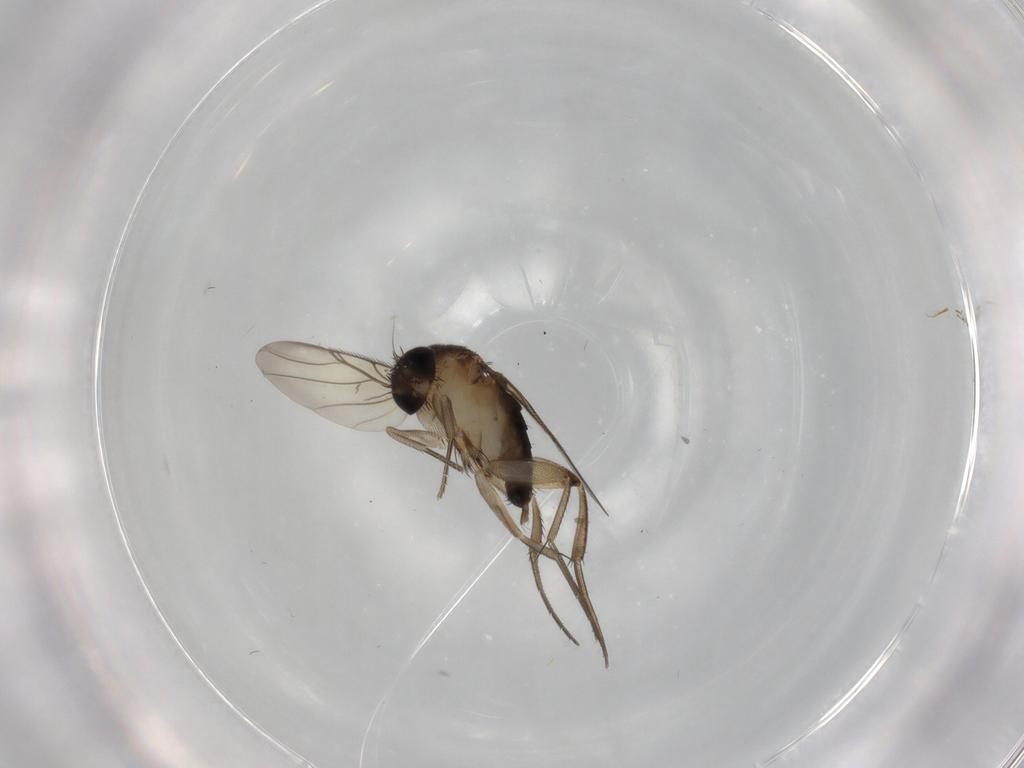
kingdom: Animalia
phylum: Arthropoda
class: Insecta
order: Diptera
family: Phoridae
